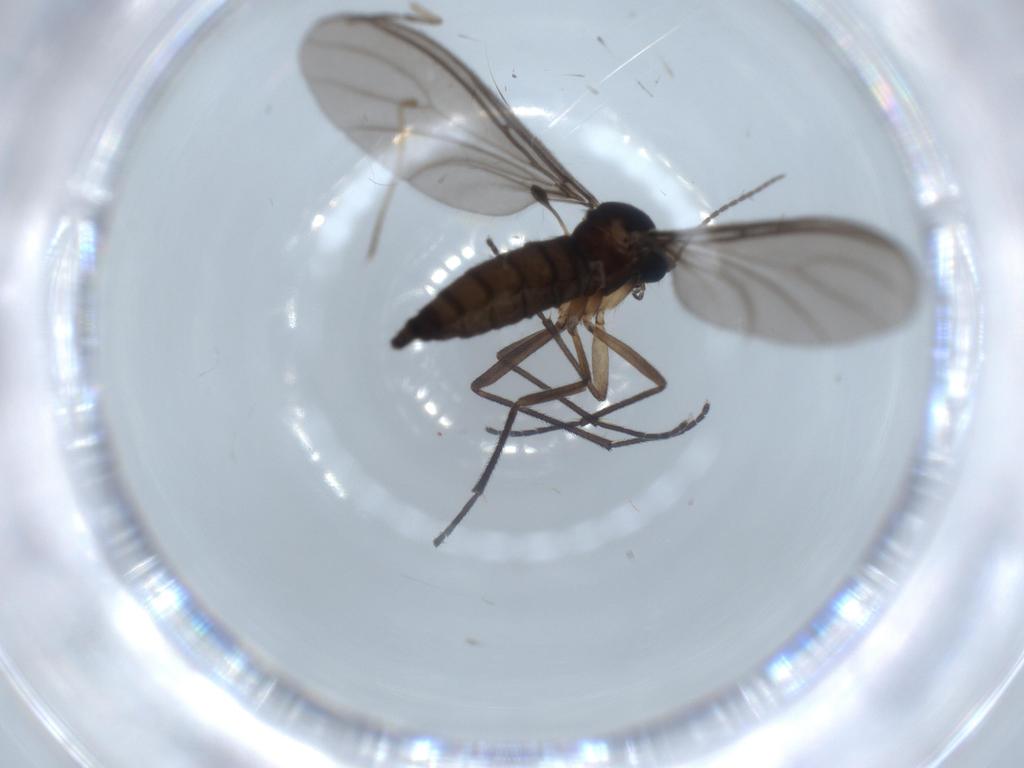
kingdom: Animalia
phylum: Arthropoda
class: Insecta
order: Diptera
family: Sciaridae
